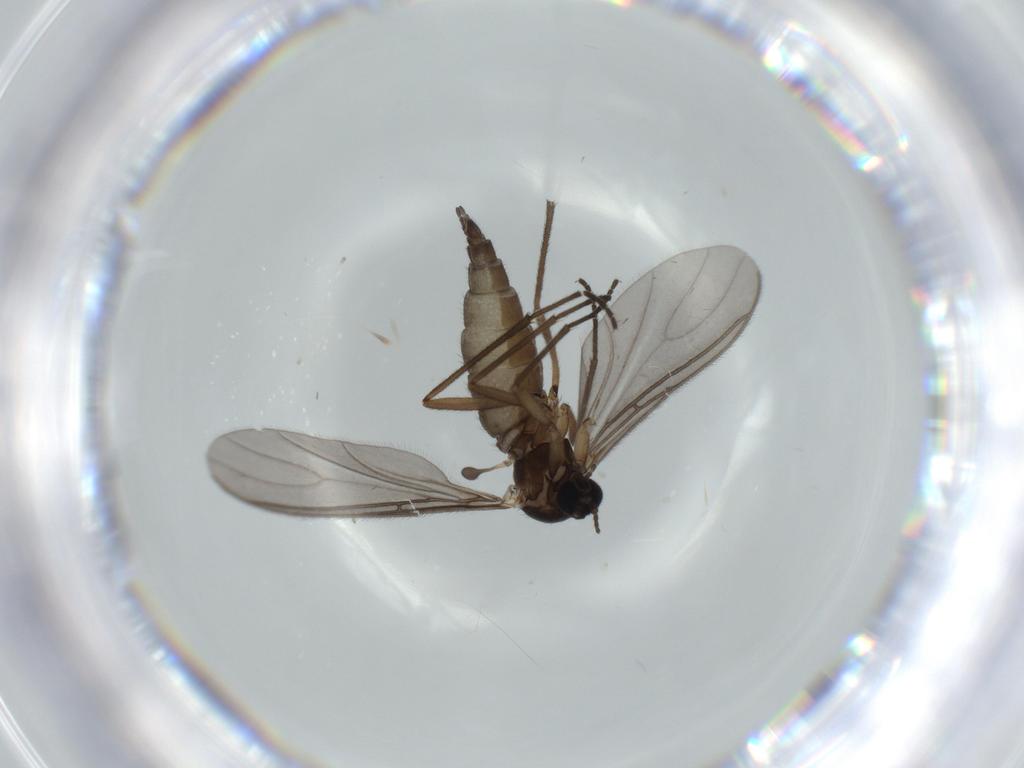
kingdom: Animalia
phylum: Arthropoda
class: Insecta
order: Diptera
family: Sciaridae
